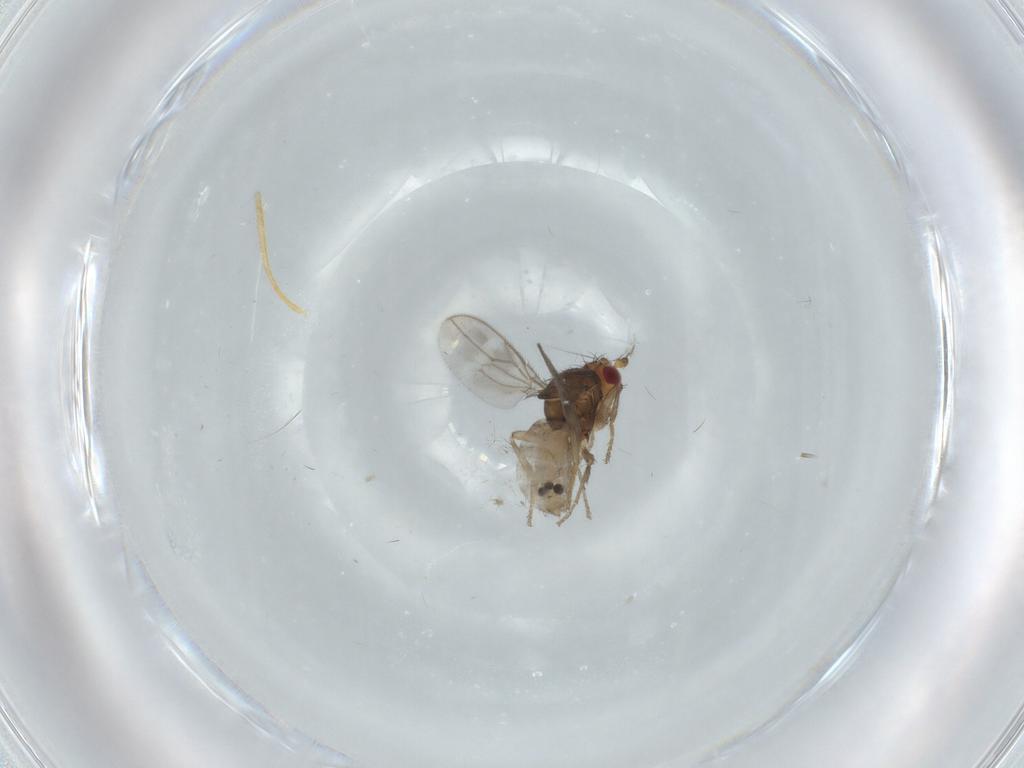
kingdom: Animalia
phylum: Arthropoda
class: Insecta
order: Diptera
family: Sphaeroceridae
